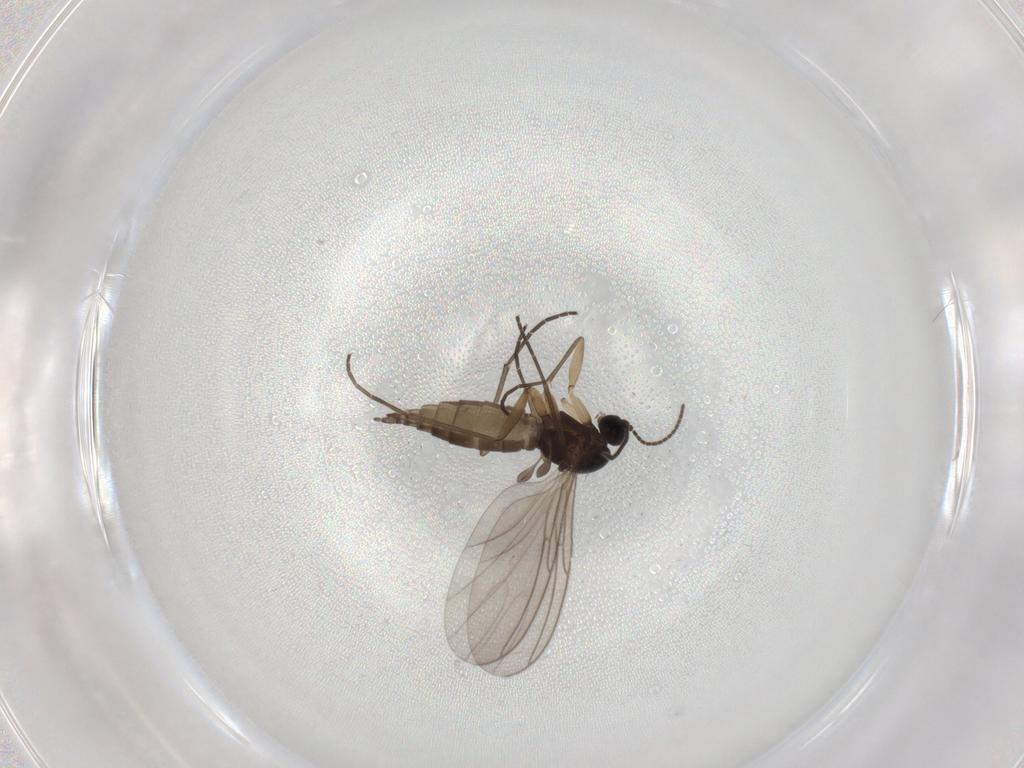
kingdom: Animalia
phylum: Arthropoda
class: Insecta
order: Diptera
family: Sciaridae
